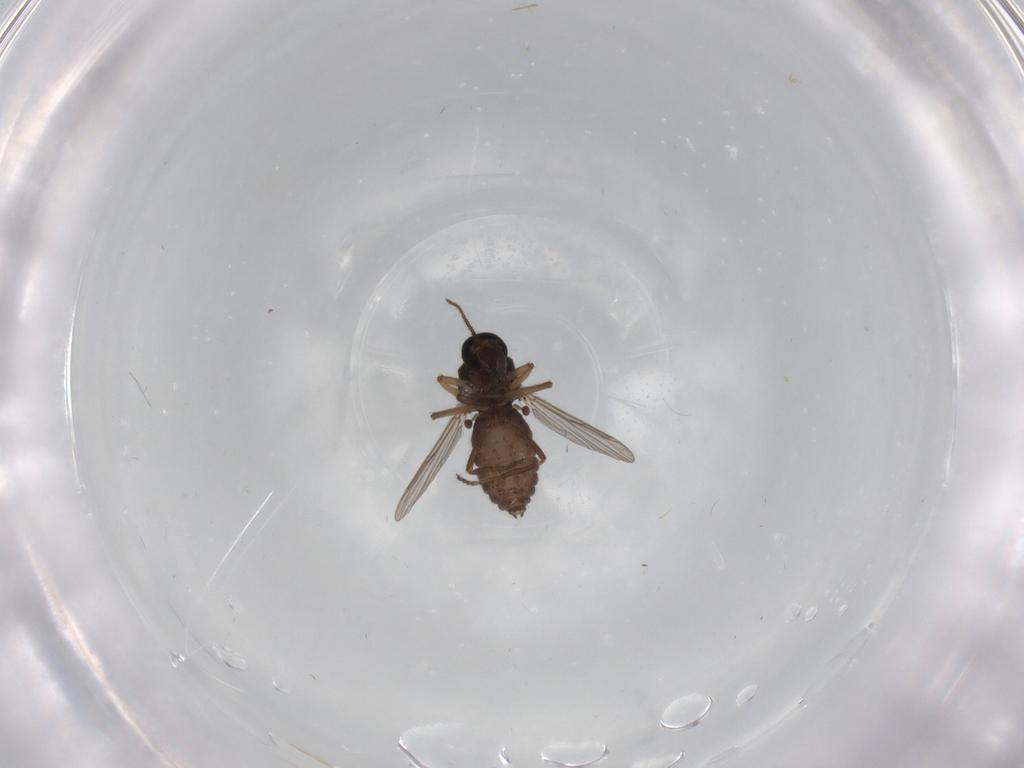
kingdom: Animalia
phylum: Arthropoda
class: Insecta
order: Diptera
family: Ceratopogonidae
